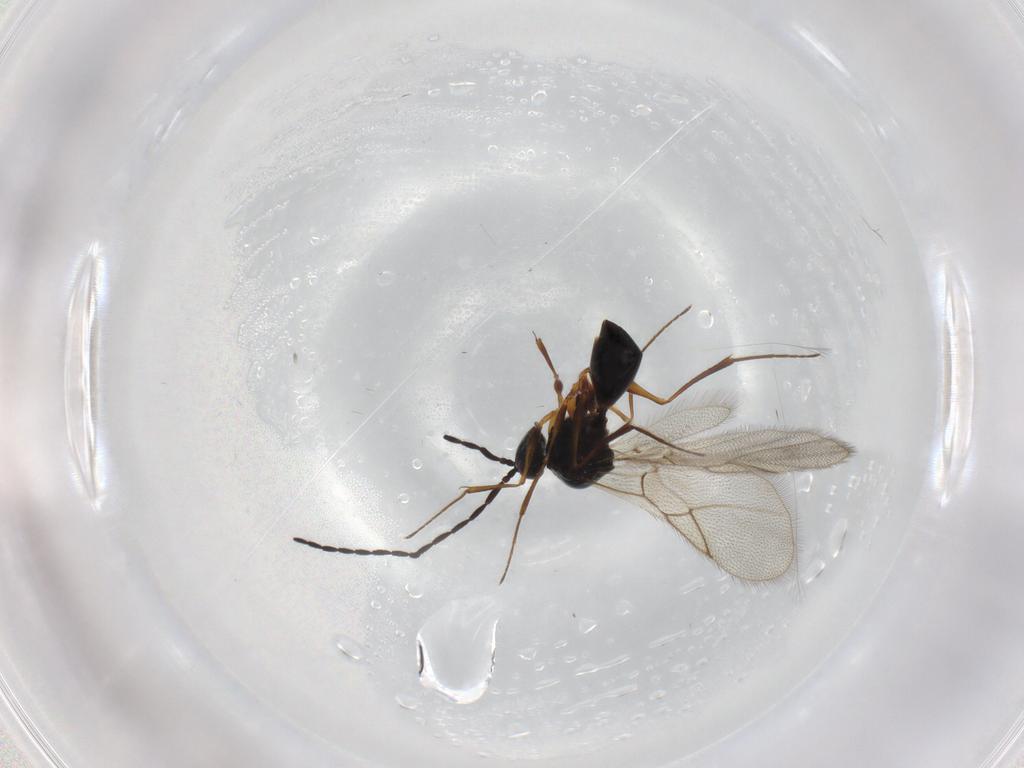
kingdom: Animalia
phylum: Arthropoda
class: Insecta
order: Hymenoptera
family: Figitidae
